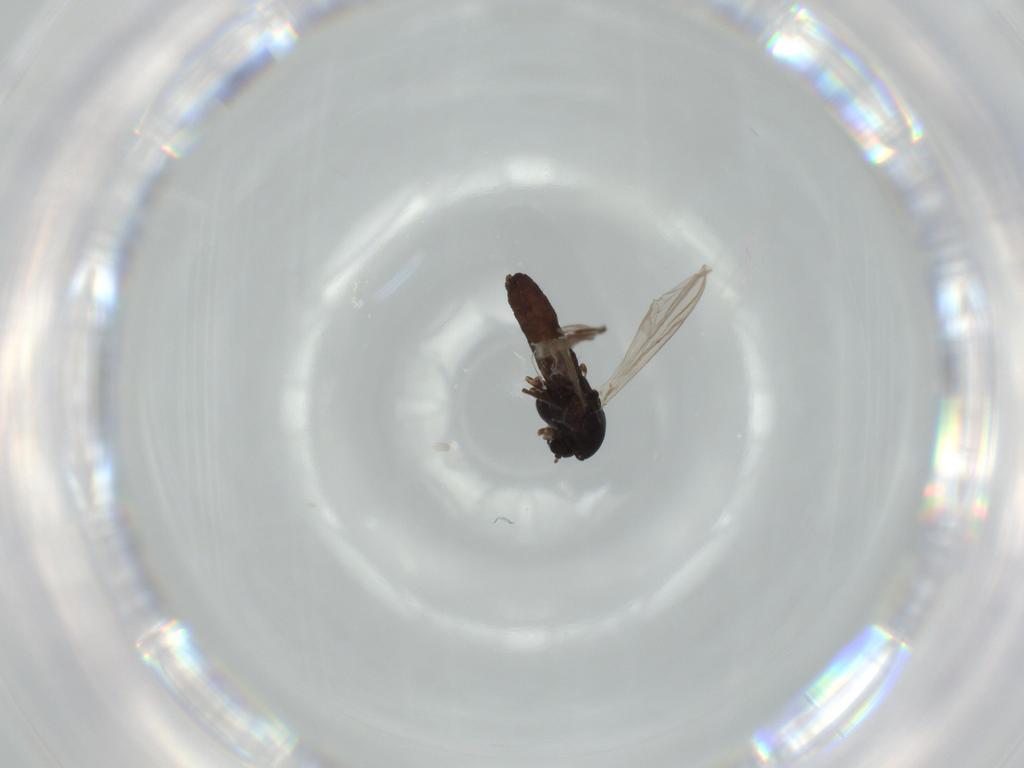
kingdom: Animalia
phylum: Arthropoda
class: Insecta
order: Diptera
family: Chironomidae
